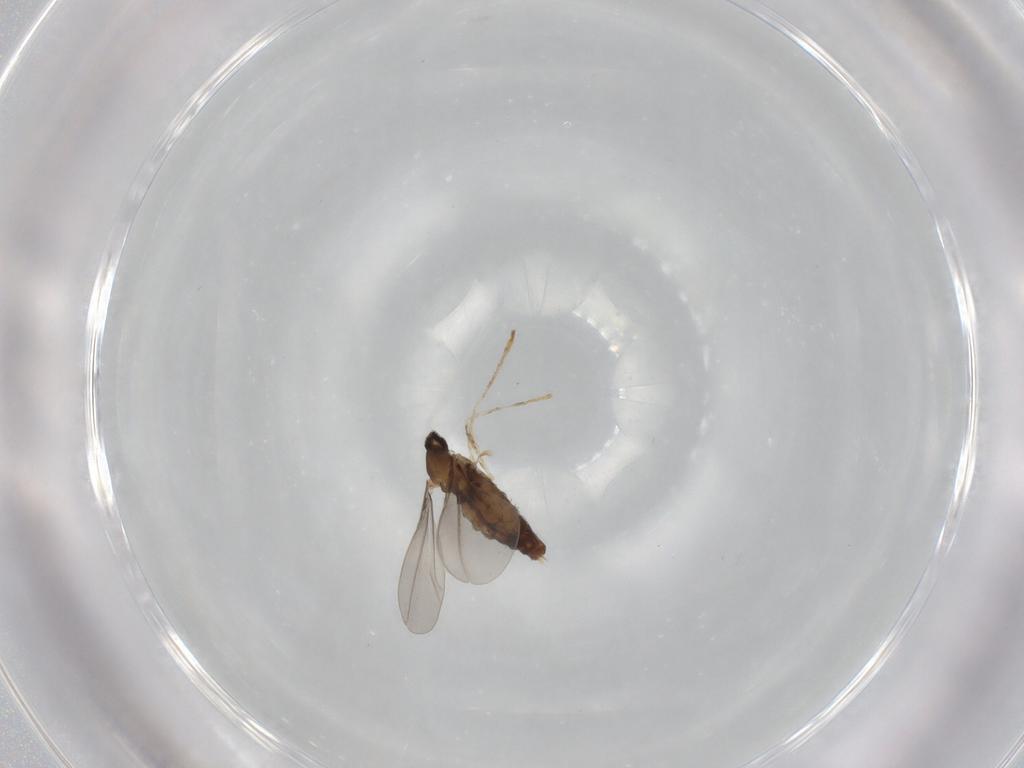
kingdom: Animalia
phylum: Arthropoda
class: Insecta
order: Diptera
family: Cecidomyiidae
